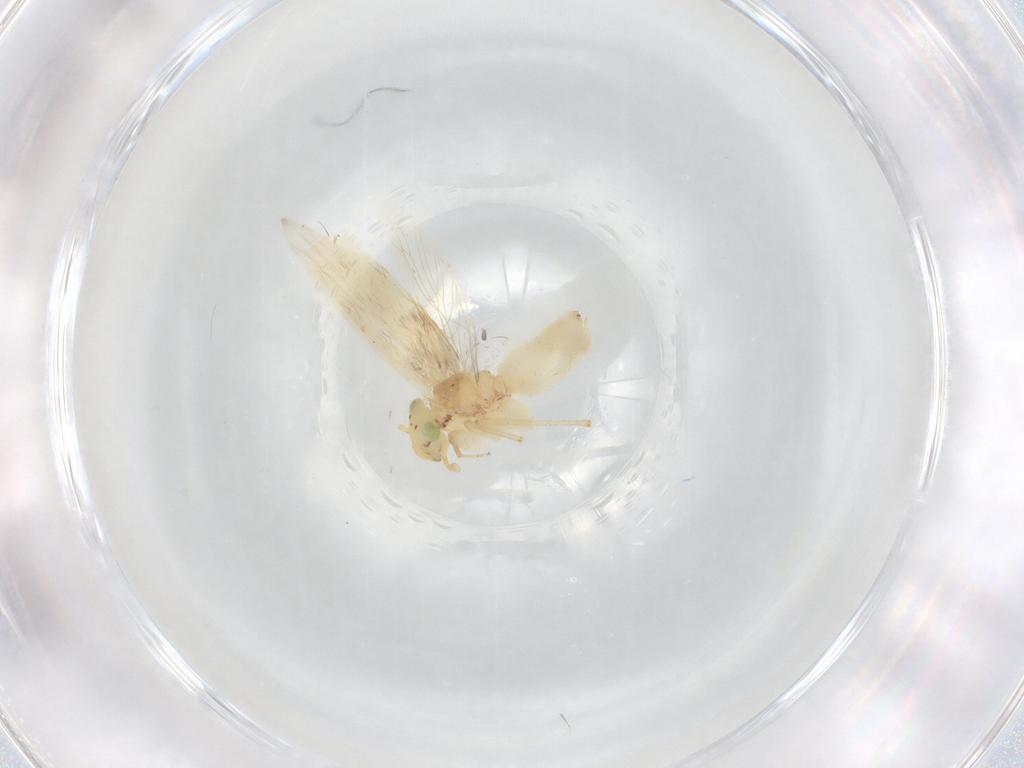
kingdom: Animalia
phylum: Arthropoda
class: Insecta
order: Psocodea
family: Lepidopsocidae
